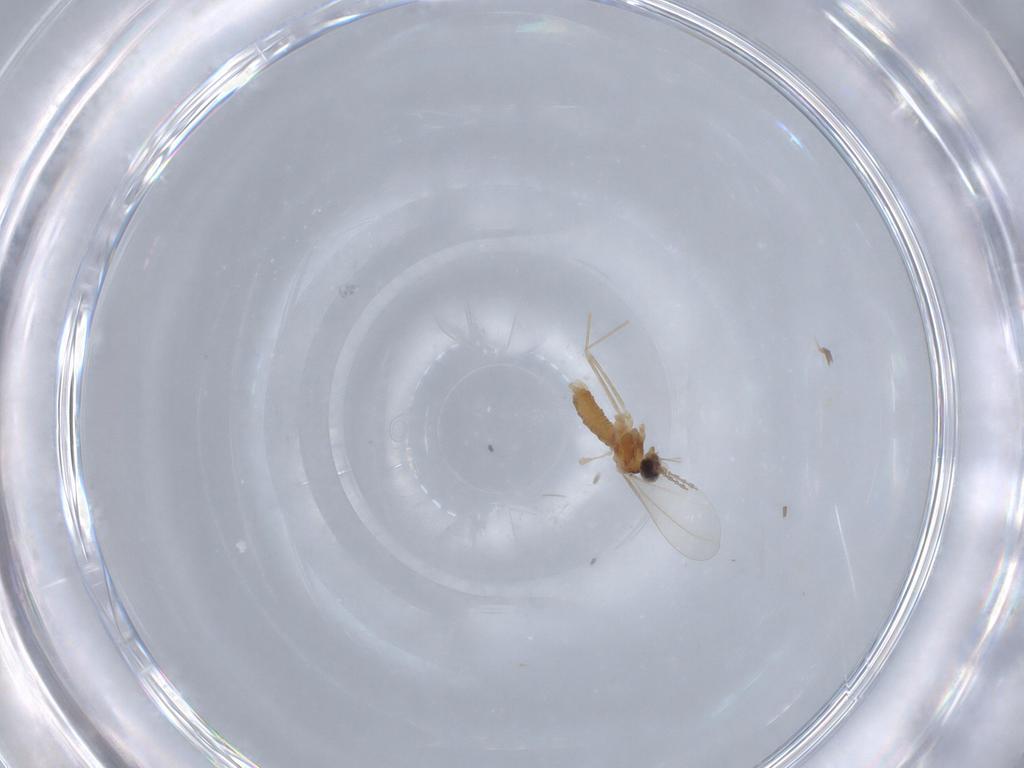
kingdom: Animalia
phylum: Arthropoda
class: Insecta
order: Diptera
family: Cecidomyiidae
